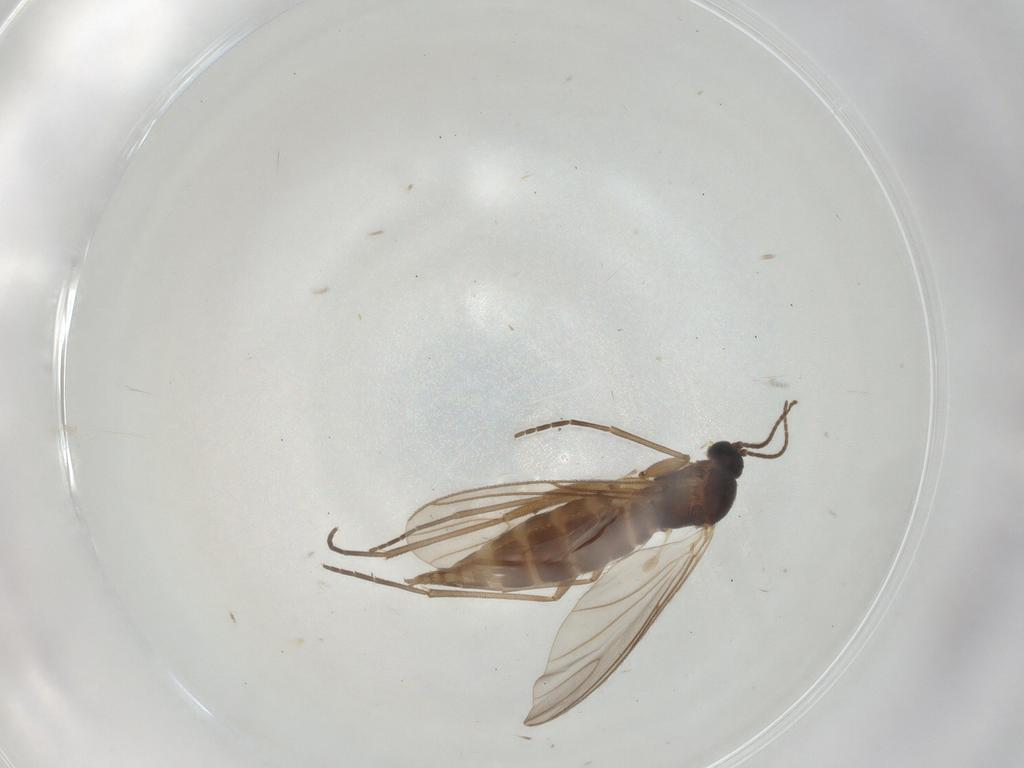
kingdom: Animalia
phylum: Arthropoda
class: Insecta
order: Diptera
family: Sciaridae
